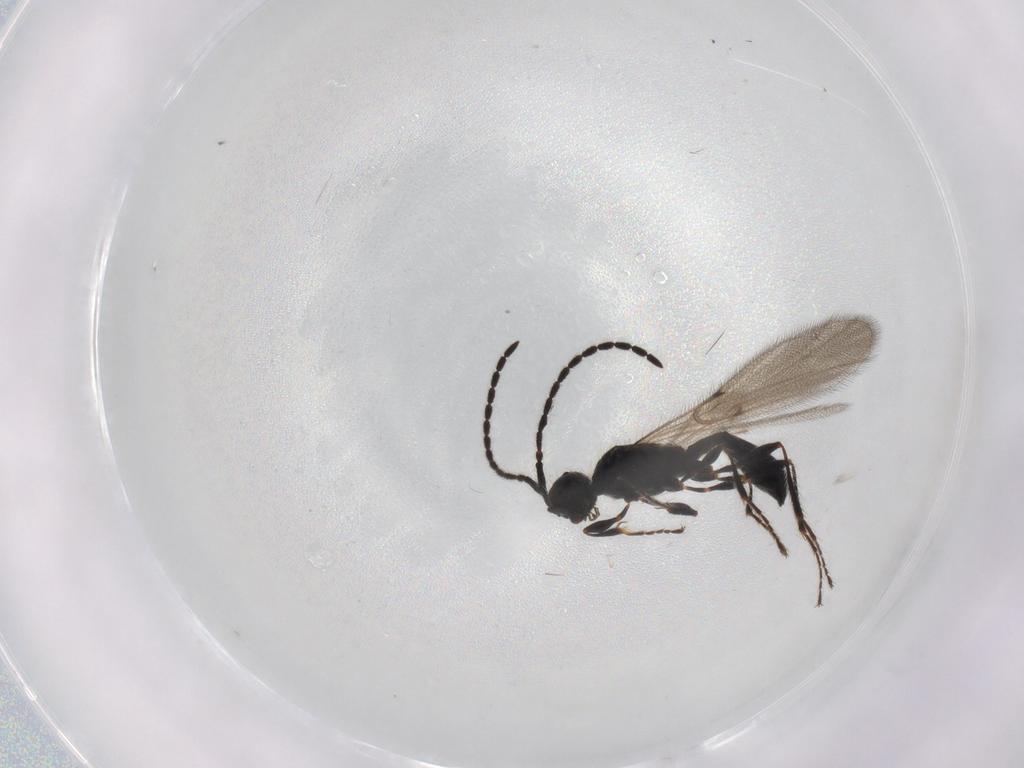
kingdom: Animalia
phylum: Arthropoda
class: Insecta
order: Hymenoptera
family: Diapriidae
